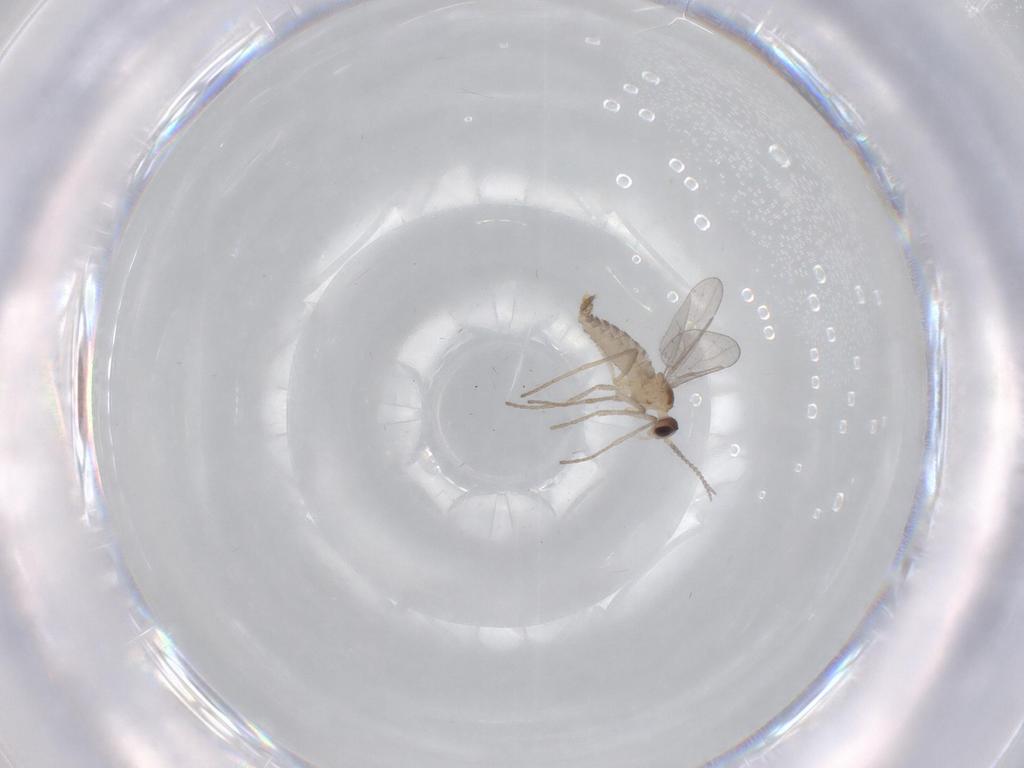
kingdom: Animalia
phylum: Arthropoda
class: Insecta
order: Diptera
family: Cecidomyiidae
